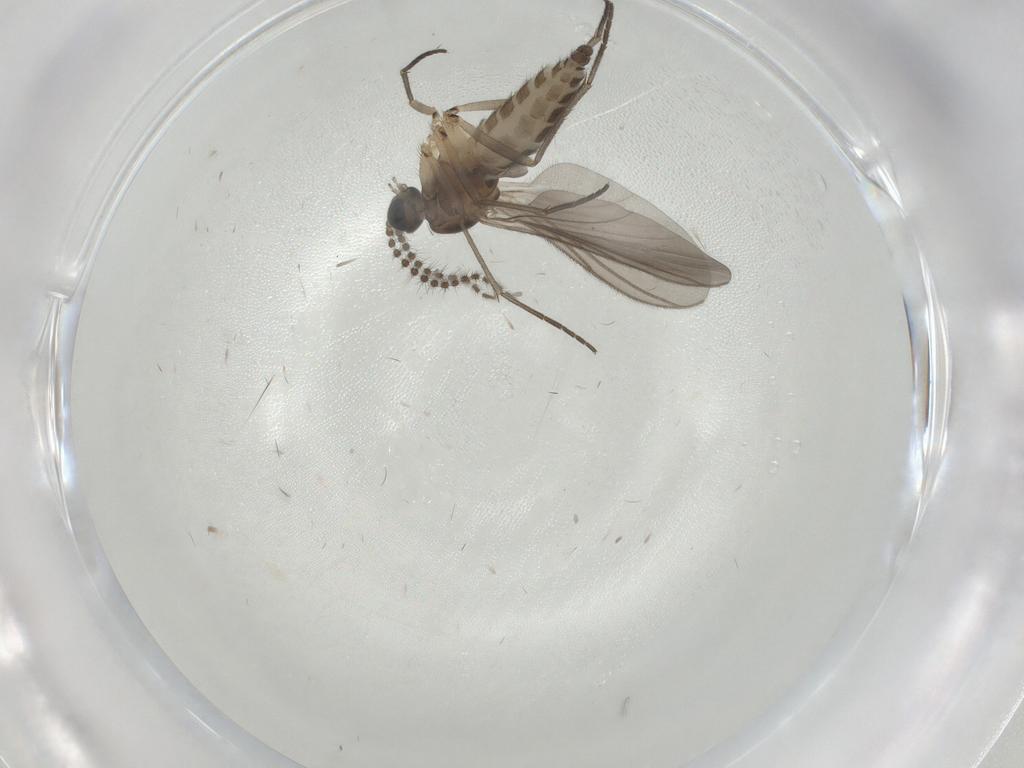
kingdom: Animalia
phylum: Arthropoda
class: Insecta
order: Diptera
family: Sciaridae
